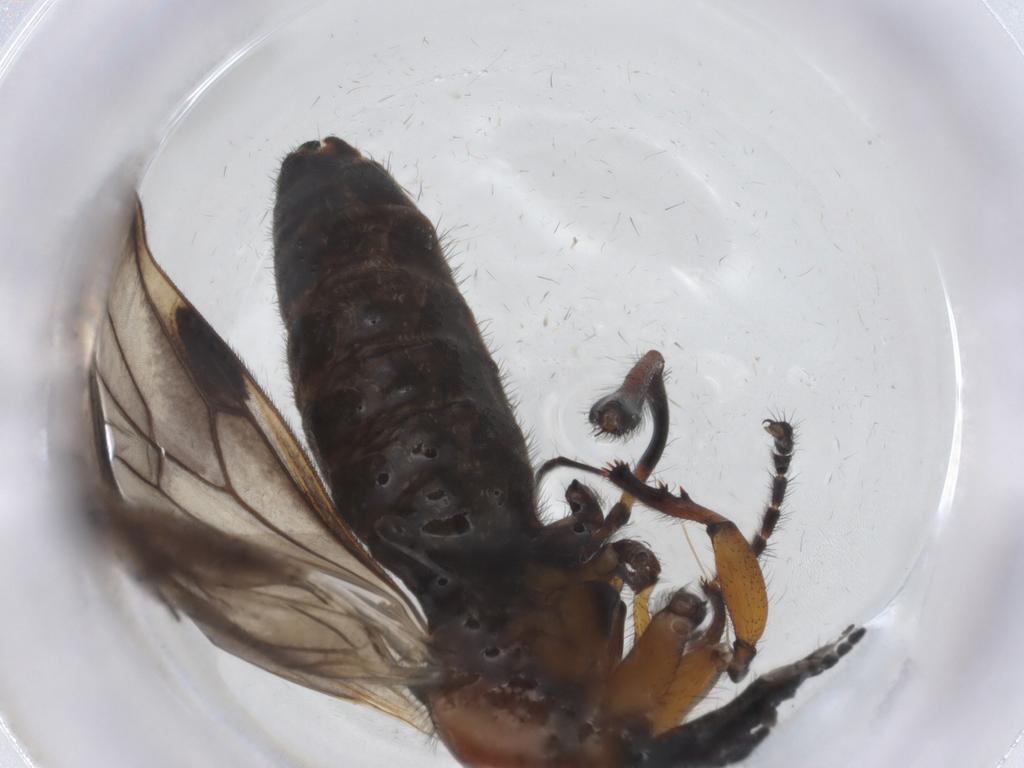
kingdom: Animalia
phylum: Arthropoda
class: Insecta
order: Diptera
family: Bibionidae
